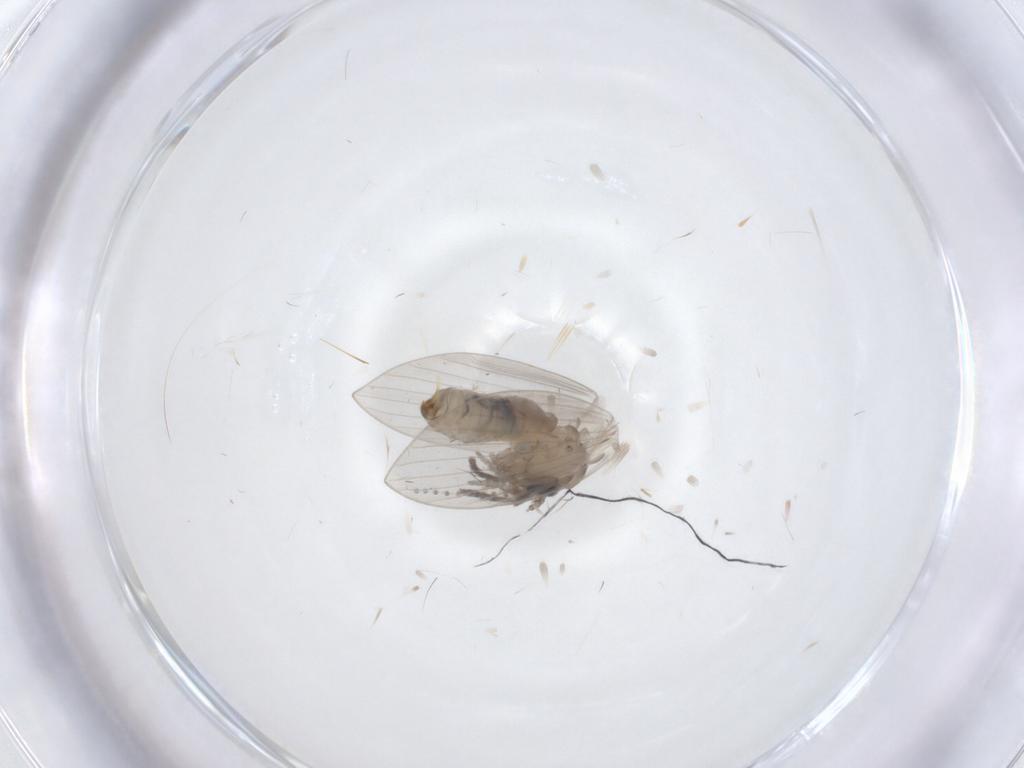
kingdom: Animalia
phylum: Arthropoda
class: Insecta
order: Diptera
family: Psychodidae
